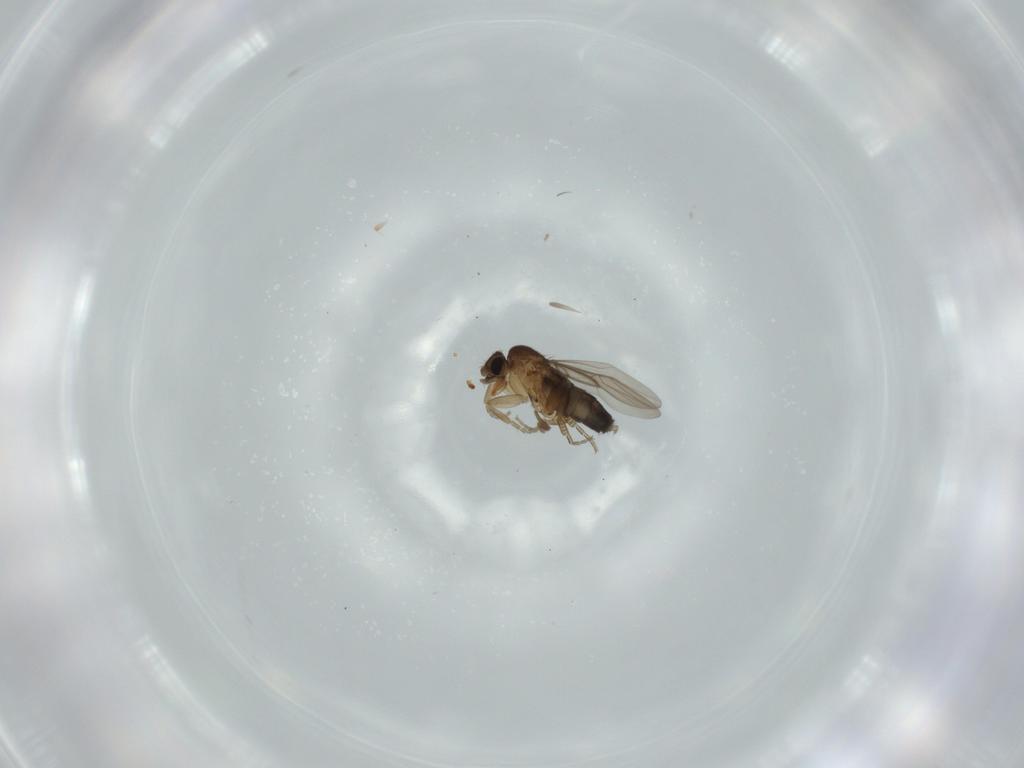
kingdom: Animalia
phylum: Arthropoda
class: Insecta
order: Diptera
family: Phoridae
